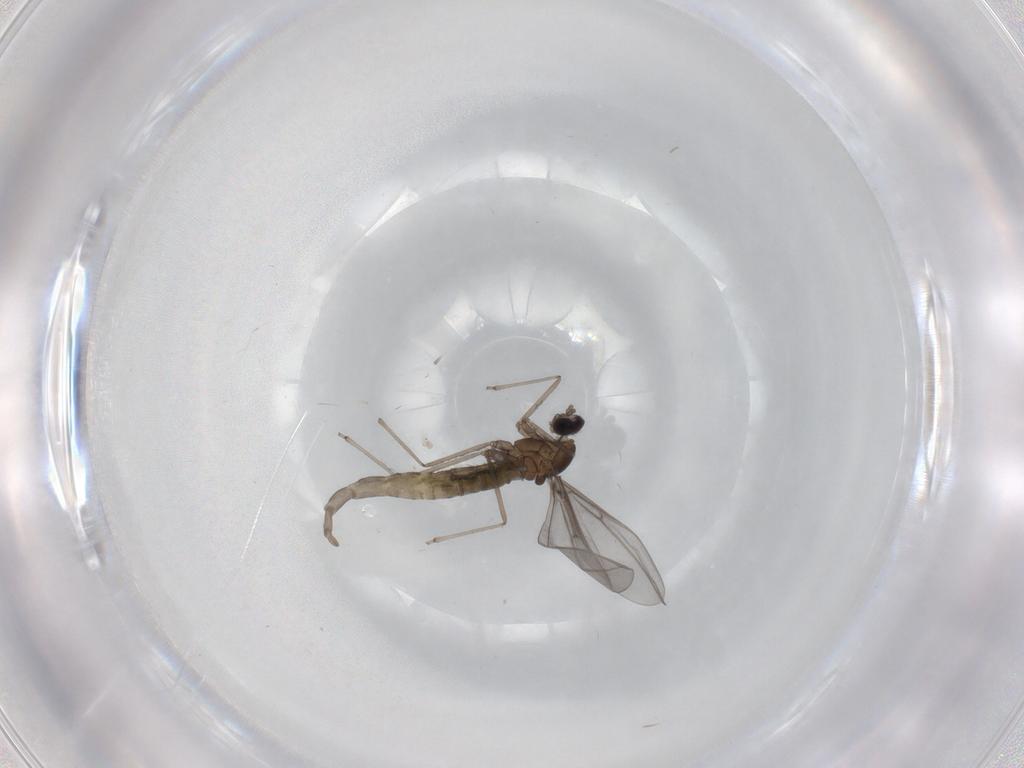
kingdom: Animalia
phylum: Arthropoda
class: Insecta
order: Diptera
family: Cecidomyiidae
